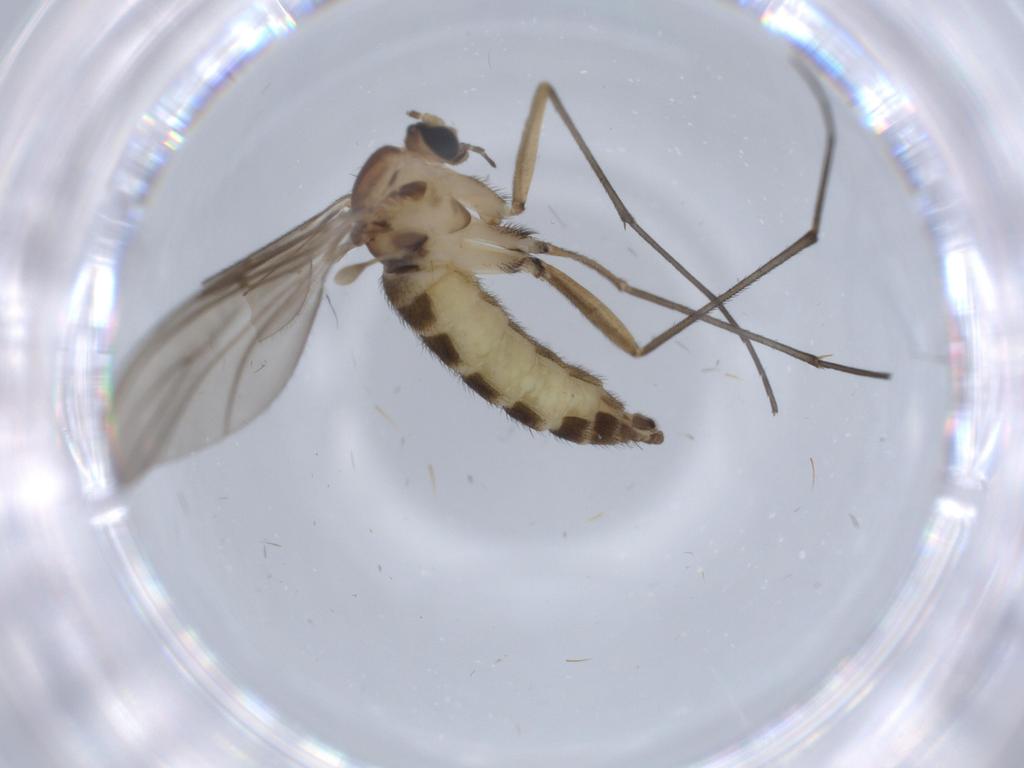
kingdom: Animalia
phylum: Arthropoda
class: Insecta
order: Diptera
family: Sciaridae
